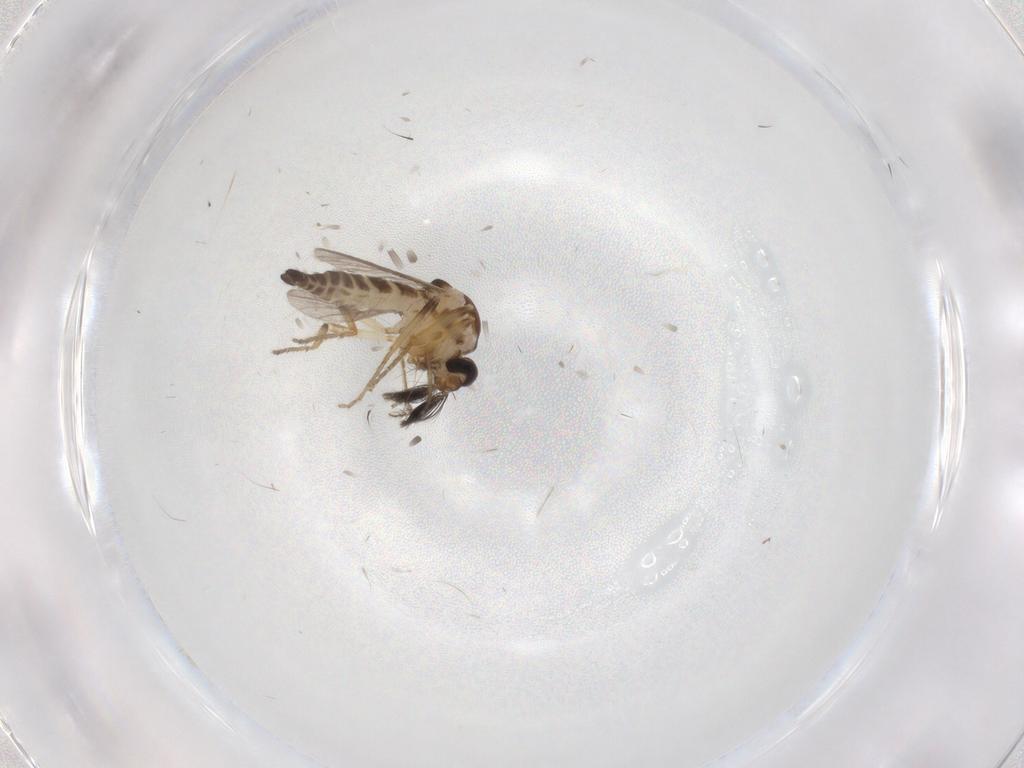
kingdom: Animalia
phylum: Arthropoda
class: Insecta
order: Diptera
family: Ceratopogonidae
